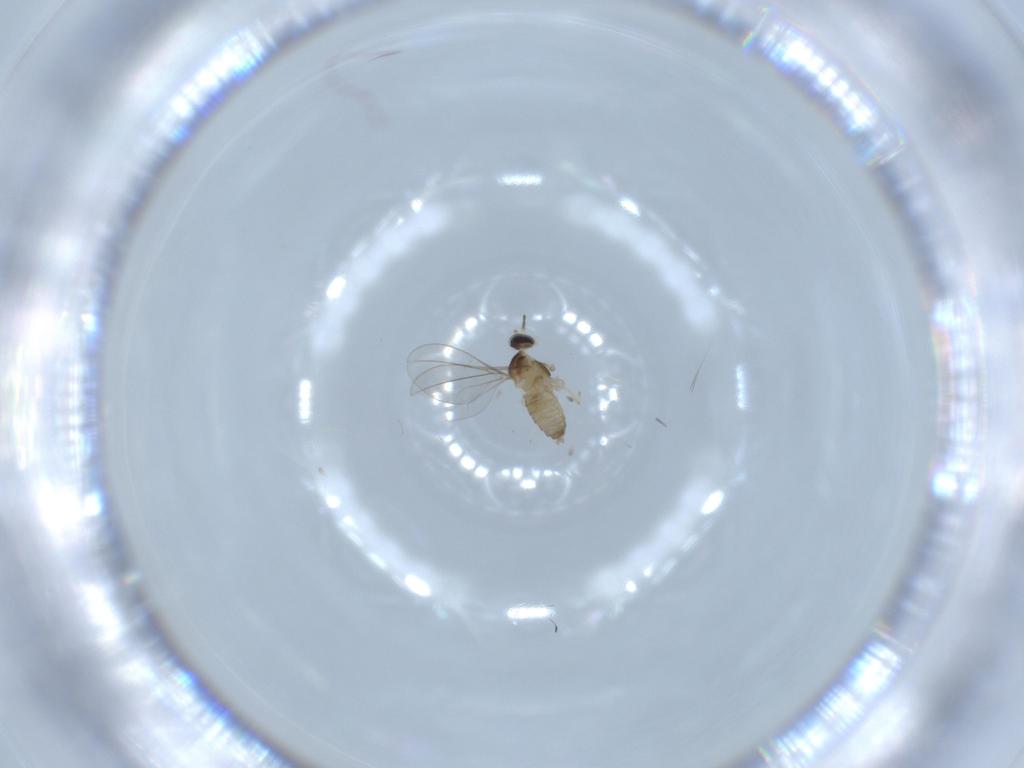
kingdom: Animalia
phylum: Arthropoda
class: Insecta
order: Diptera
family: Cecidomyiidae
